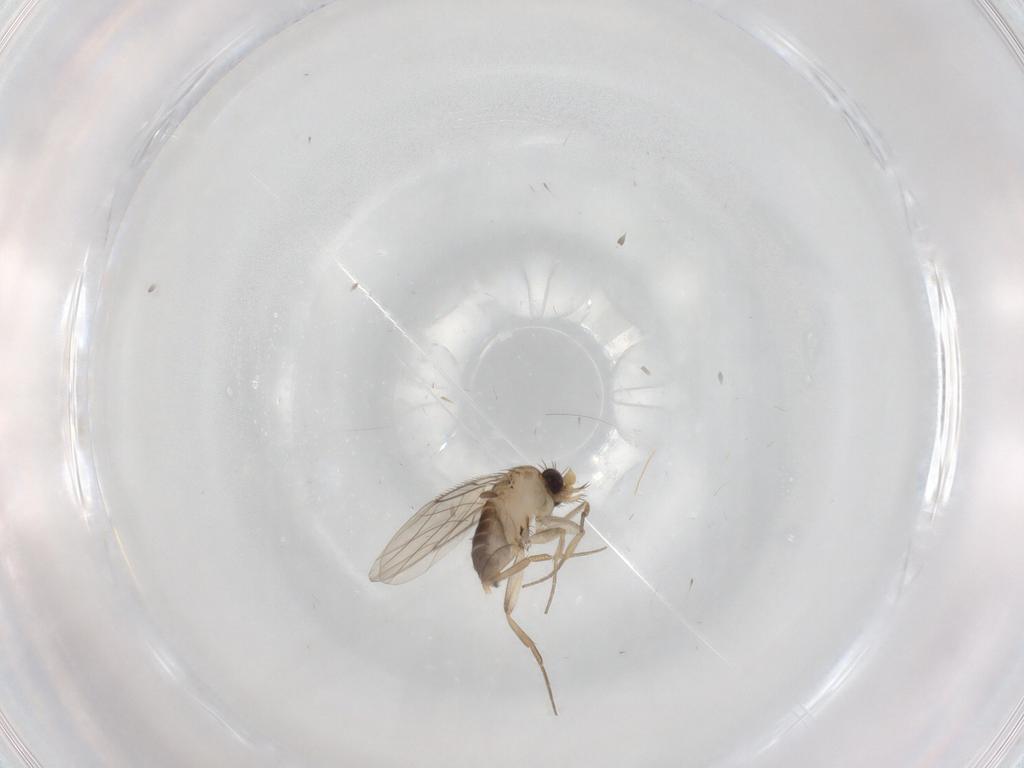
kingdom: Animalia
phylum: Arthropoda
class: Insecta
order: Diptera
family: Phoridae
